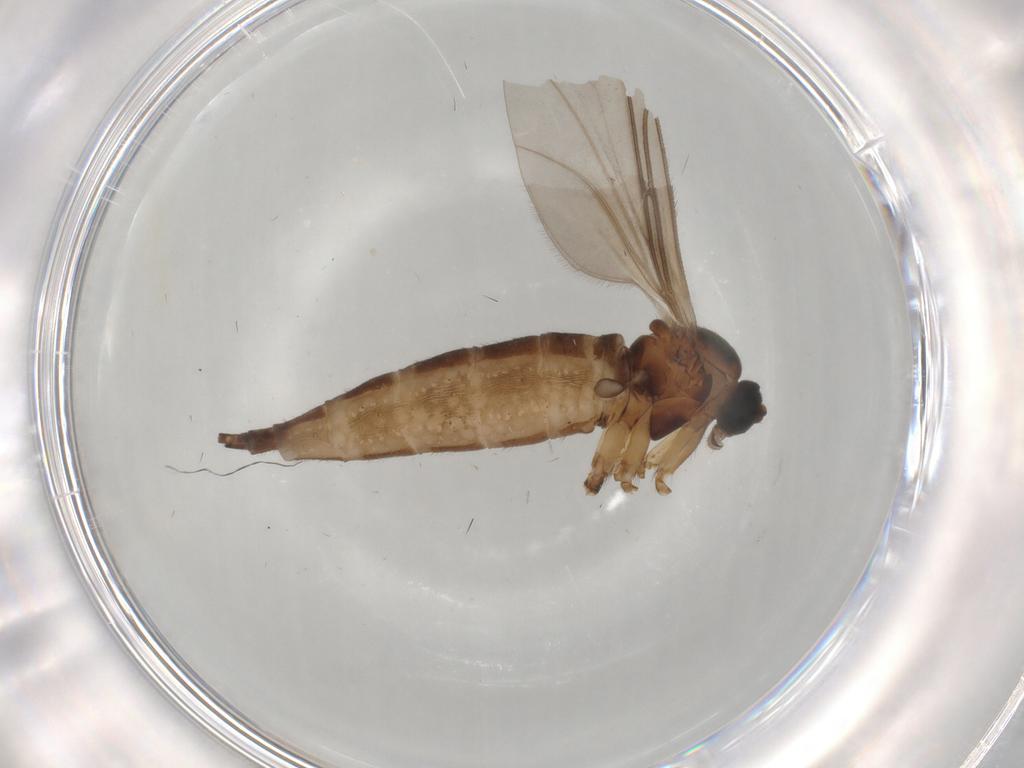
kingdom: Animalia
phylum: Arthropoda
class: Insecta
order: Diptera
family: Sciaridae
